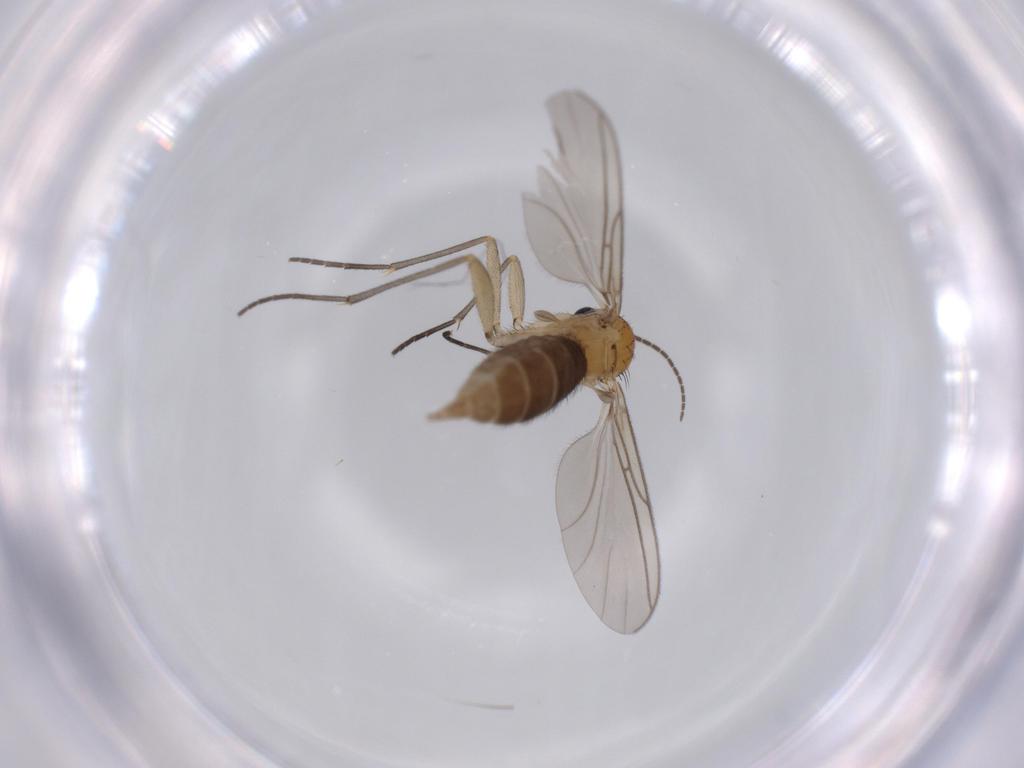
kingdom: Animalia
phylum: Arthropoda
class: Insecta
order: Diptera
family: Sciaridae
